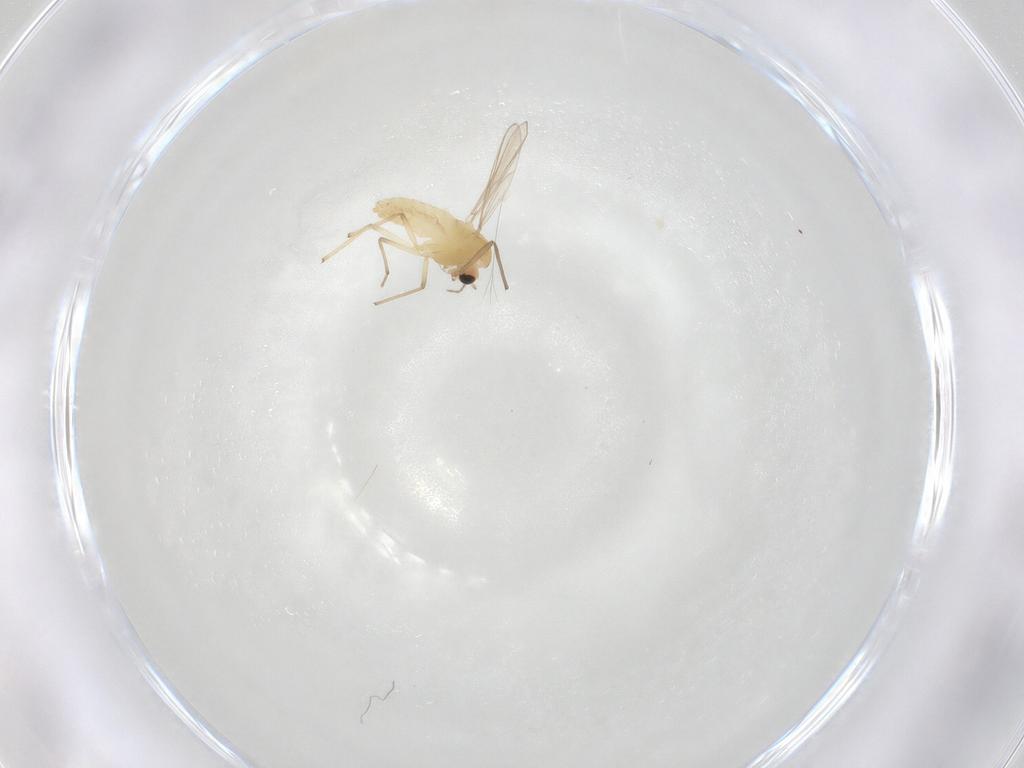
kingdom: Animalia
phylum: Arthropoda
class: Insecta
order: Diptera
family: Chironomidae
